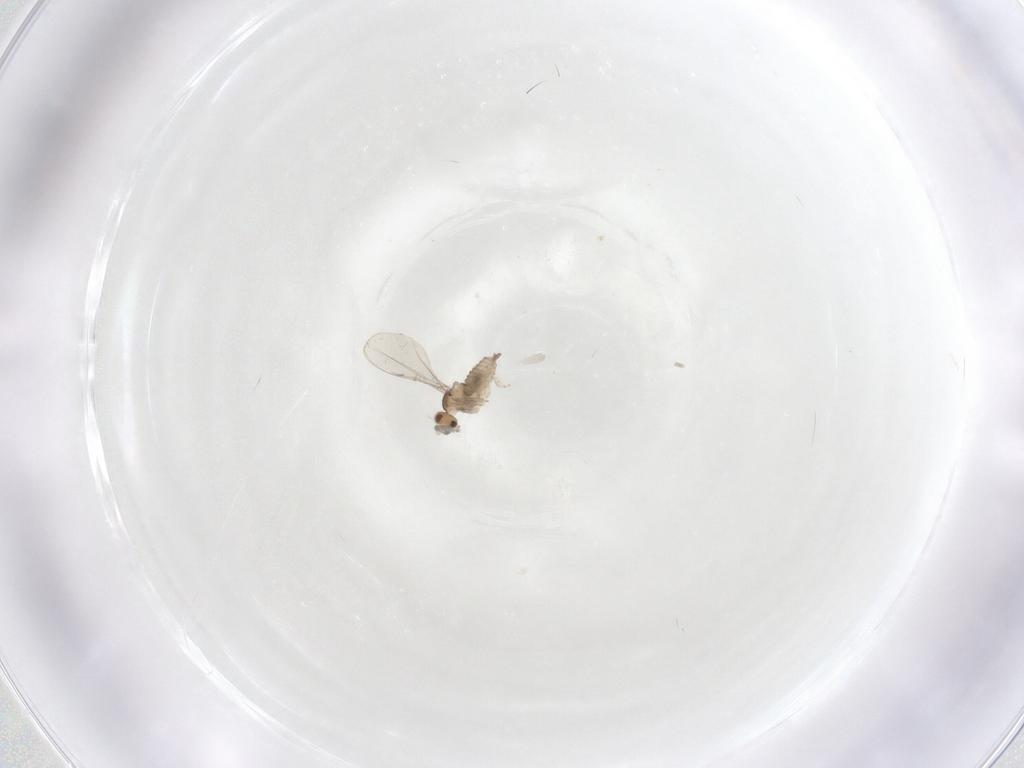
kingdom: Animalia
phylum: Arthropoda
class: Insecta
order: Diptera
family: Cecidomyiidae
